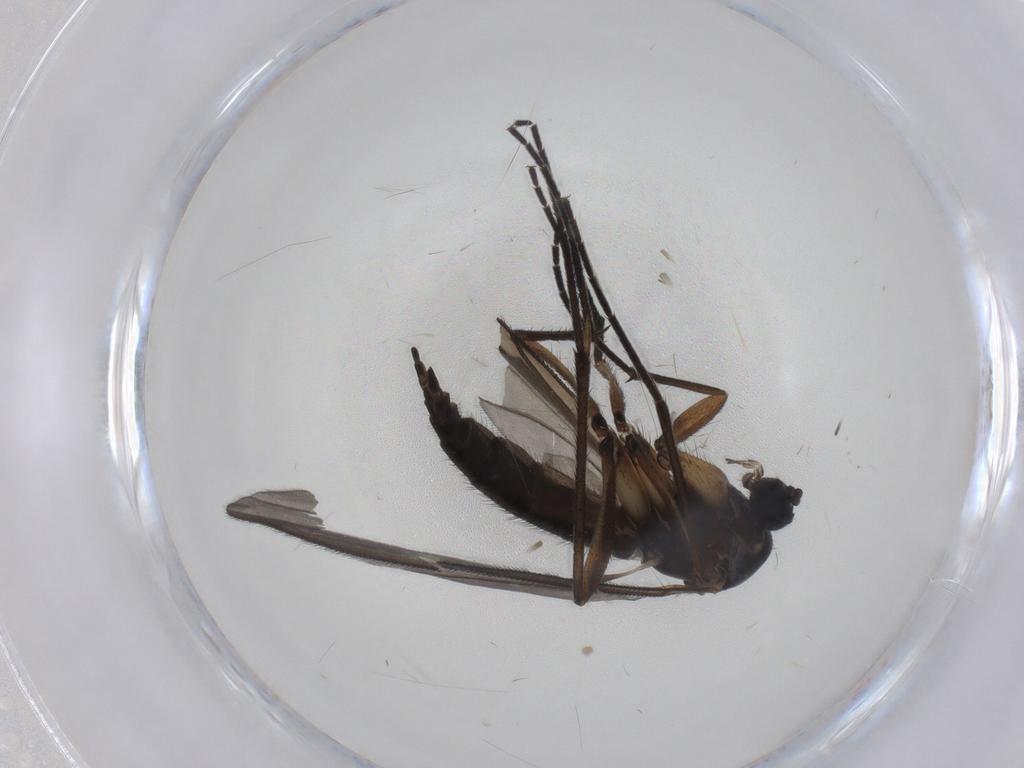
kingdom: Animalia
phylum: Arthropoda
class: Insecta
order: Diptera
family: Sciaridae
